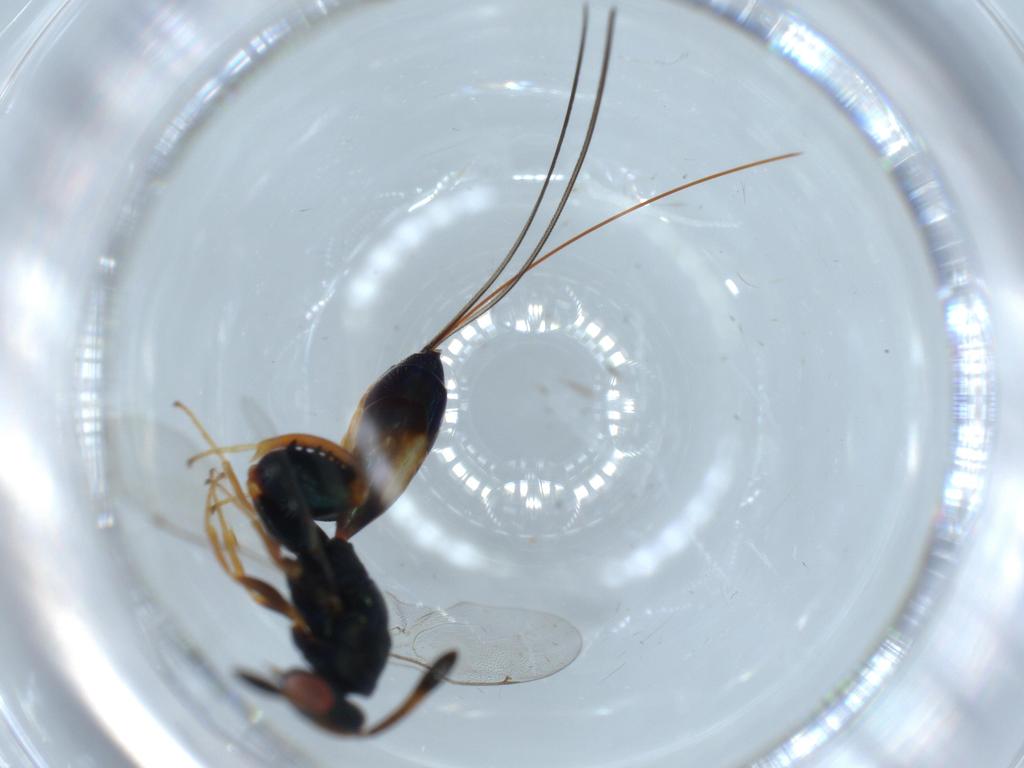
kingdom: Animalia
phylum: Arthropoda
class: Insecta
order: Hymenoptera
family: Torymidae
